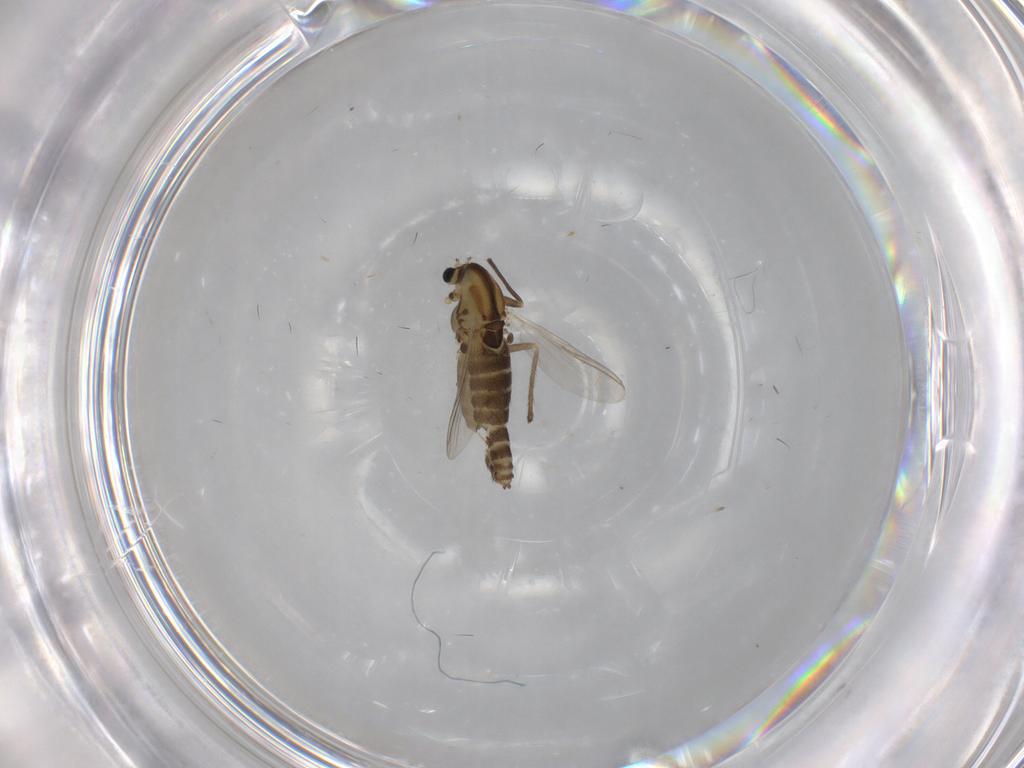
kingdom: Animalia
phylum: Arthropoda
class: Insecta
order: Diptera
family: Chironomidae
